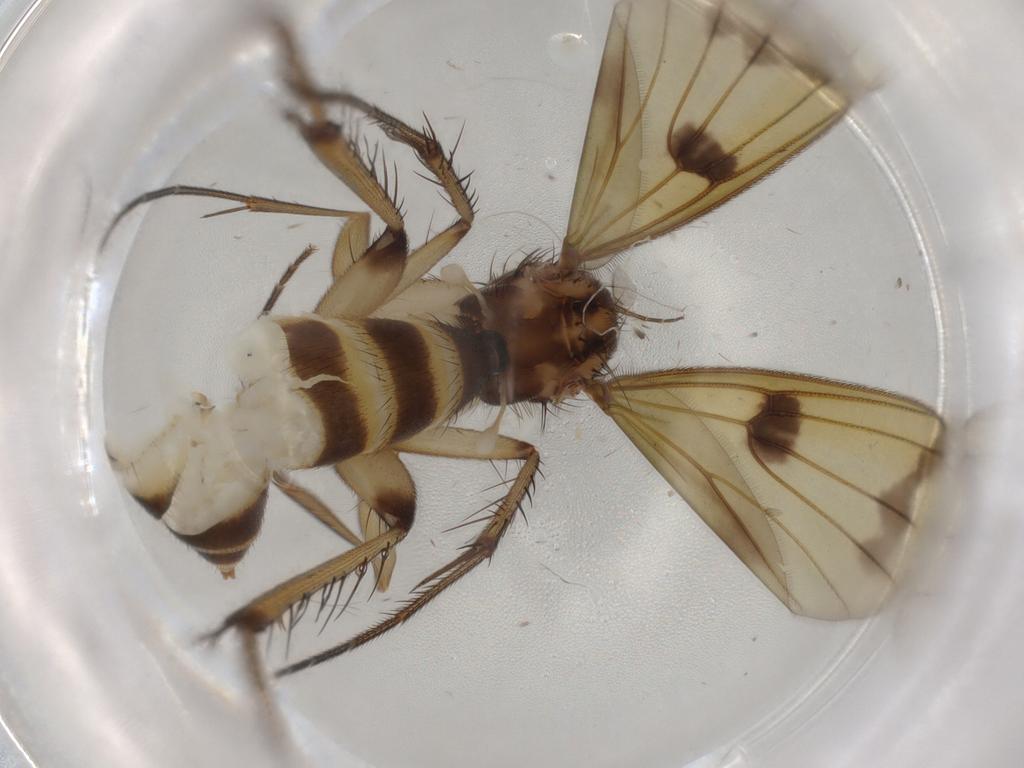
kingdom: Animalia
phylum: Arthropoda
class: Insecta
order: Diptera
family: Mycetophilidae
